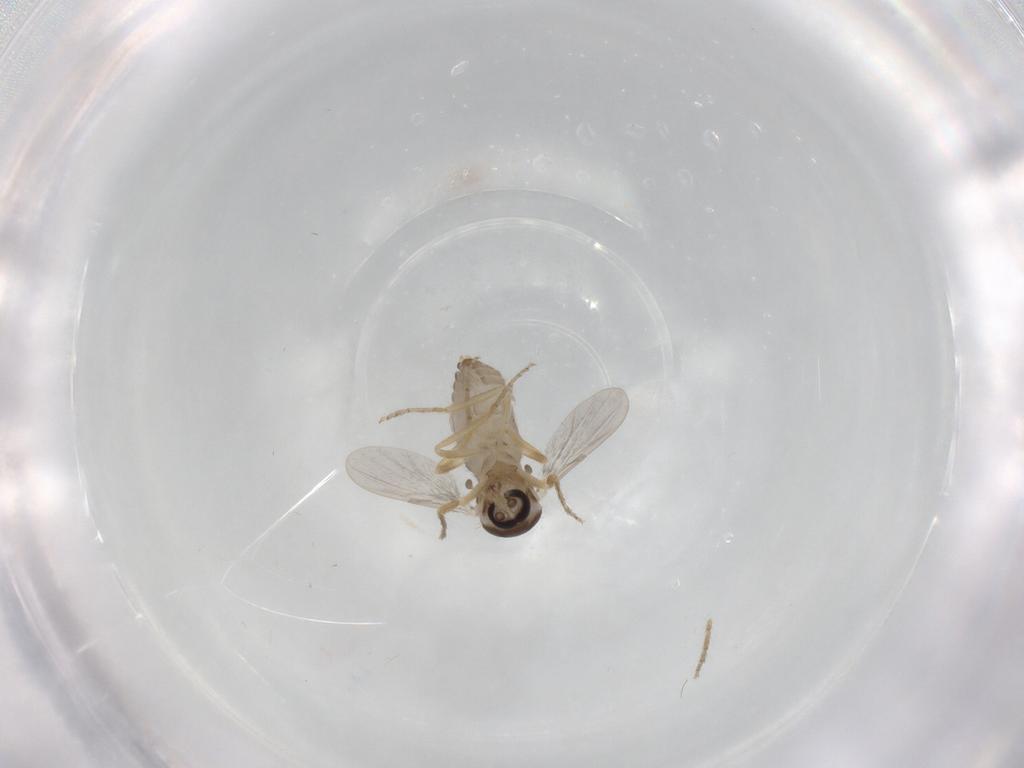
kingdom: Animalia
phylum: Arthropoda
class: Insecta
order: Diptera
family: Ceratopogonidae
